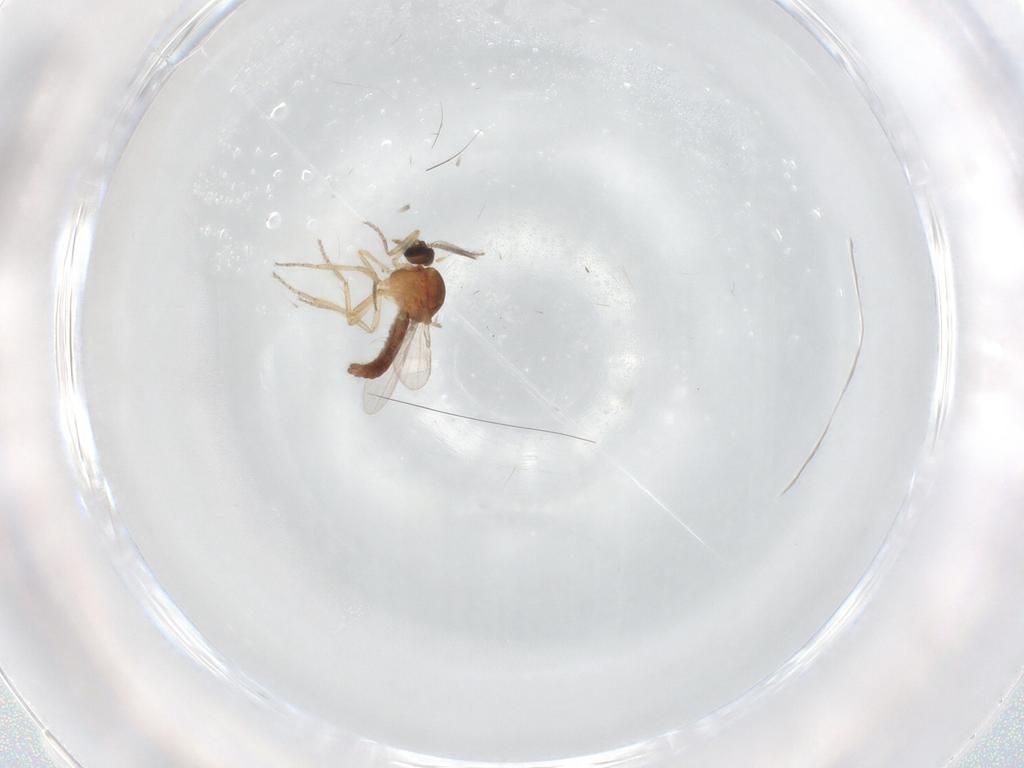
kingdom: Animalia
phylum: Arthropoda
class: Insecta
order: Diptera
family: Ceratopogonidae
